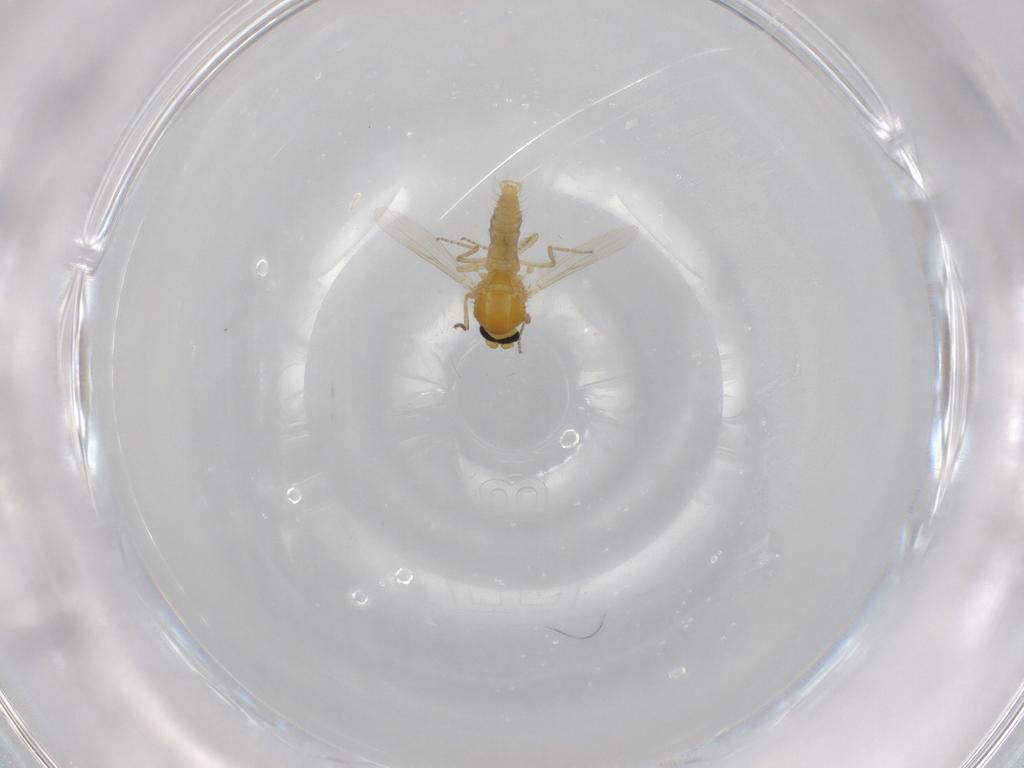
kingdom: Animalia
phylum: Arthropoda
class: Insecta
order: Diptera
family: Ceratopogonidae
